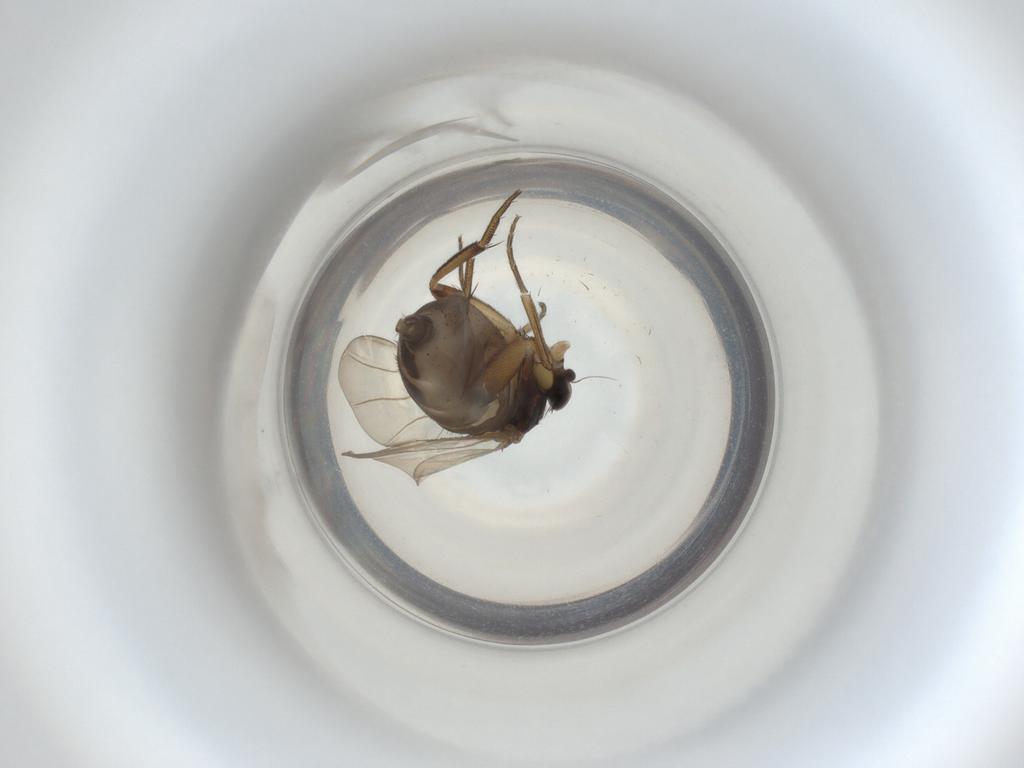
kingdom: Animalia
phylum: Arthropoda
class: Insecta
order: Diptera
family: Phoridae
